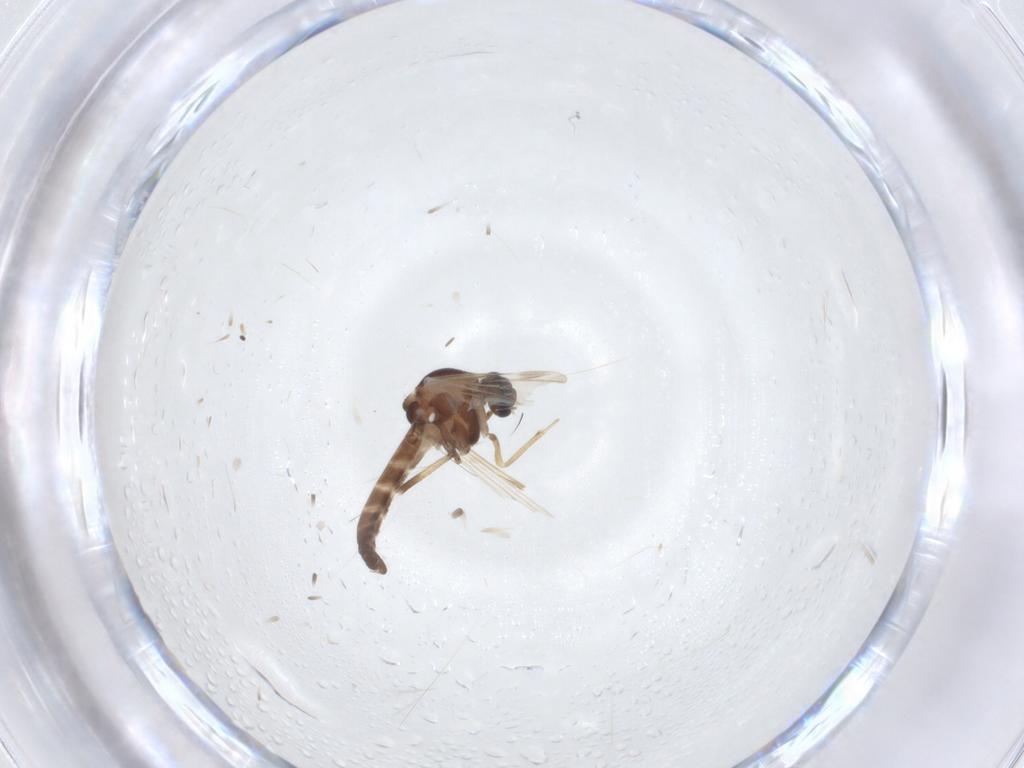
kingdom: Animalia
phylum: Arthropoda
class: Insecta
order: Diptera
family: Ceratopogonidae
